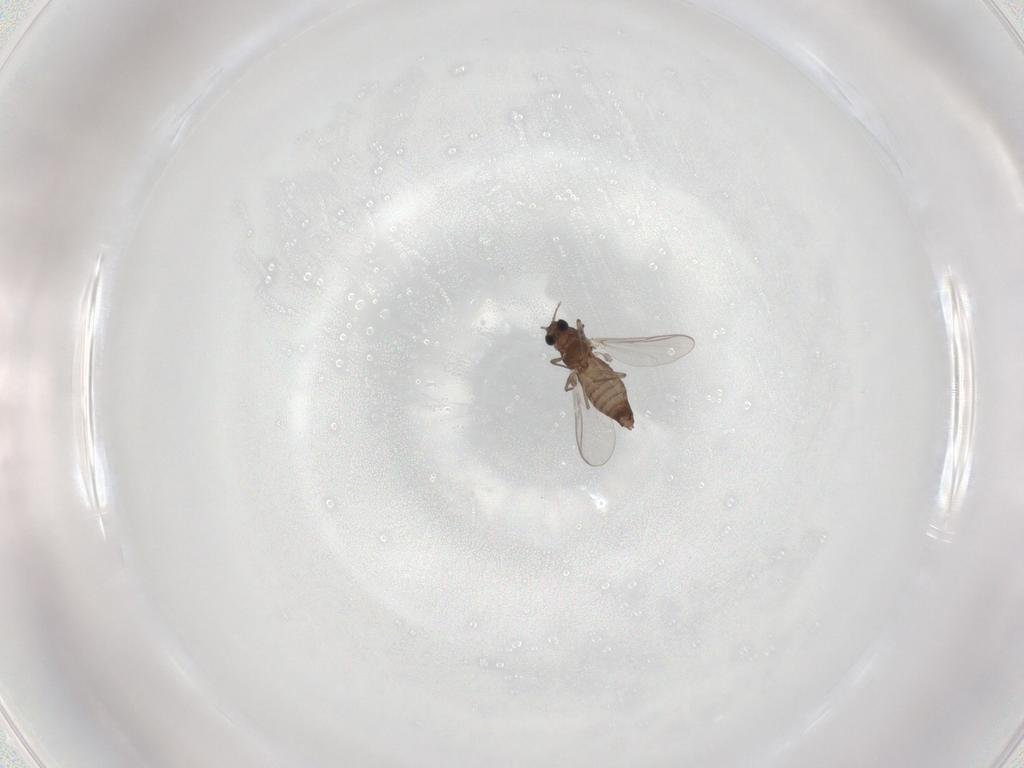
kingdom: Animalia
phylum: Arthropoda
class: Insecta
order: Diptera
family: Chironomidae
